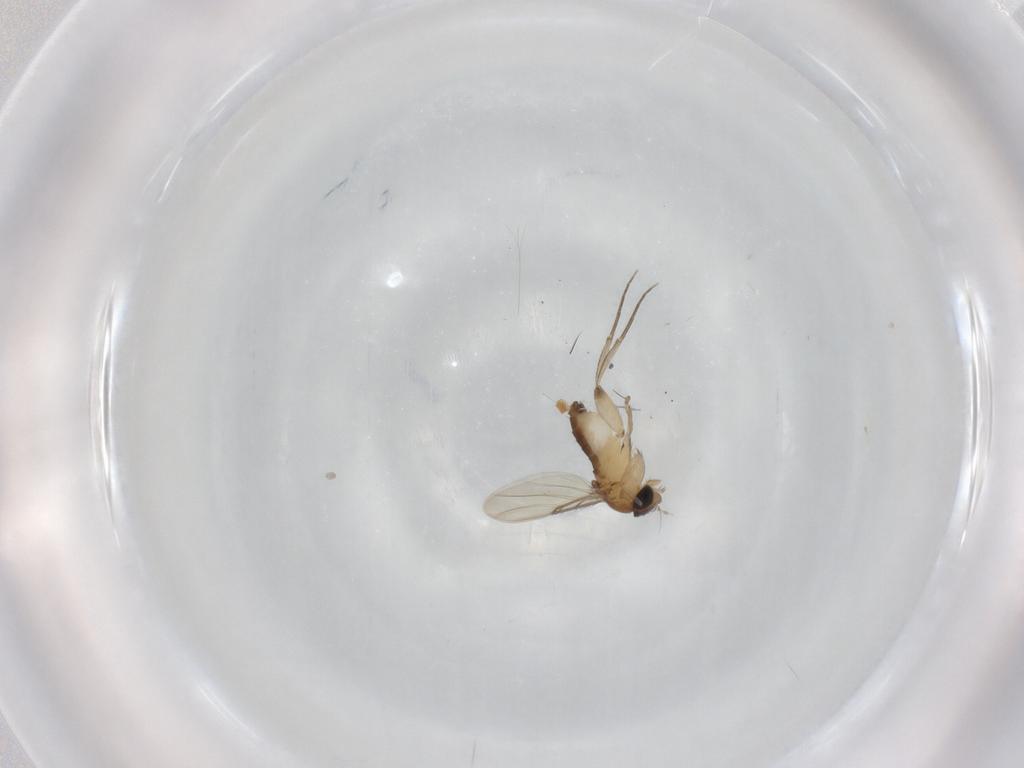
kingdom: Animalia
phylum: Arthropoda
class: Insecta
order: Diptera
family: Phoridae
